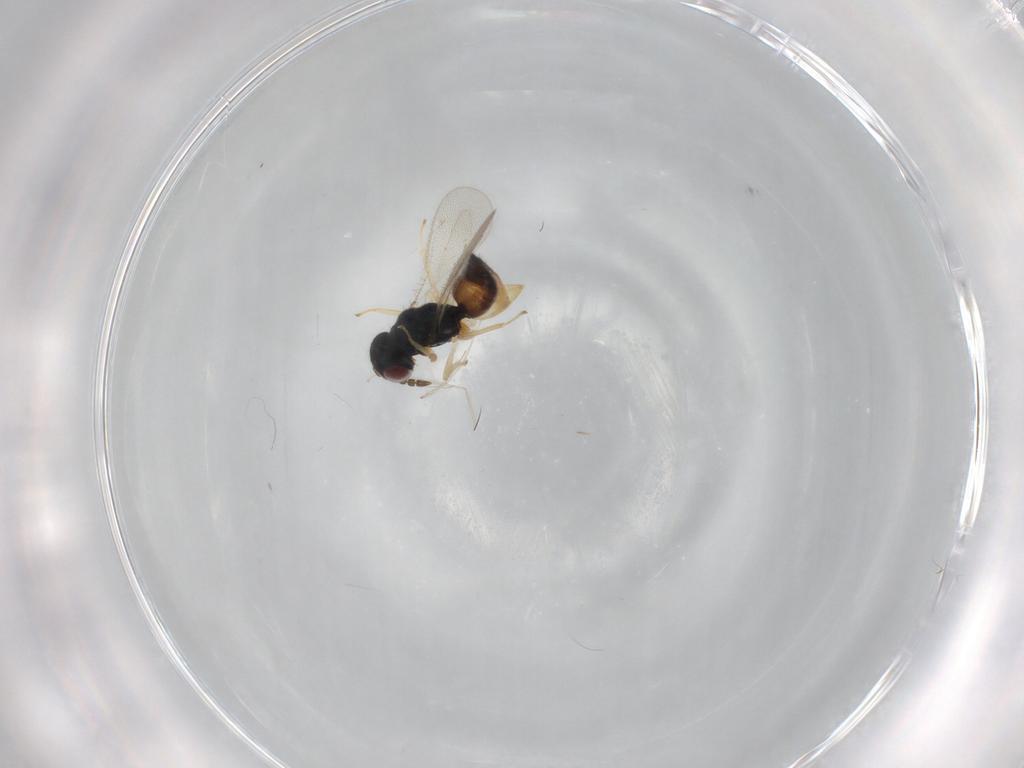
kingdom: Animalia
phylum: Arthropoda
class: Insecta
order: Hymenoptera
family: Eulophidae
